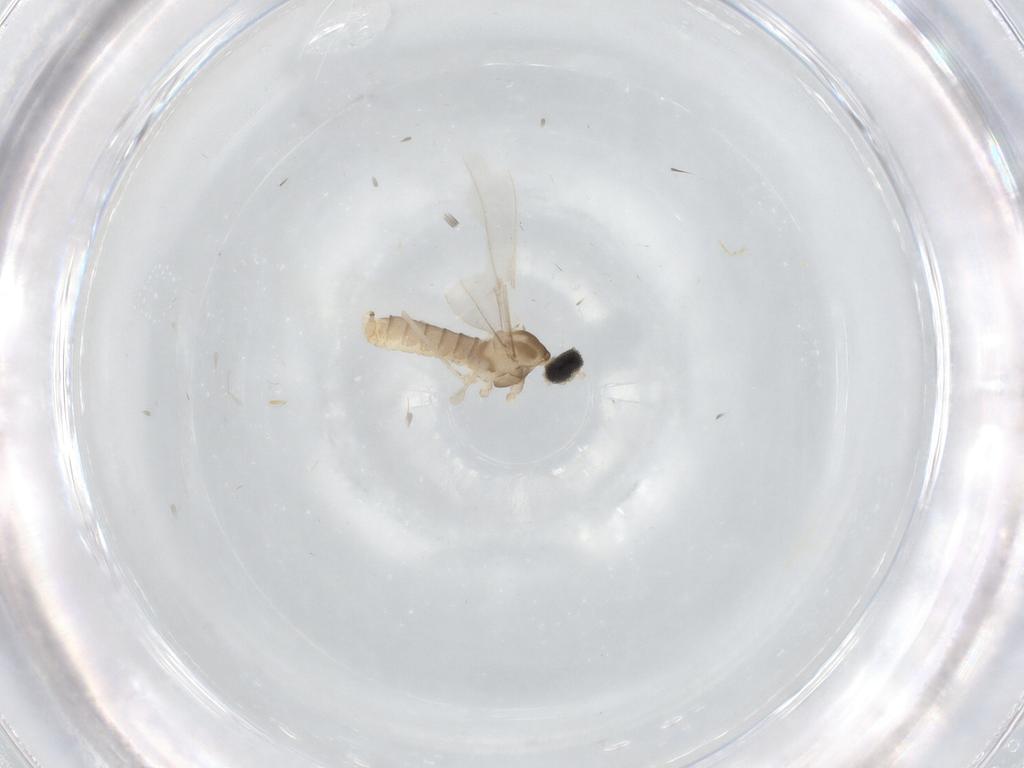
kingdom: Animalia
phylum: Arthropoda
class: Insecta
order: Diptera
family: Cecidomyiidae
